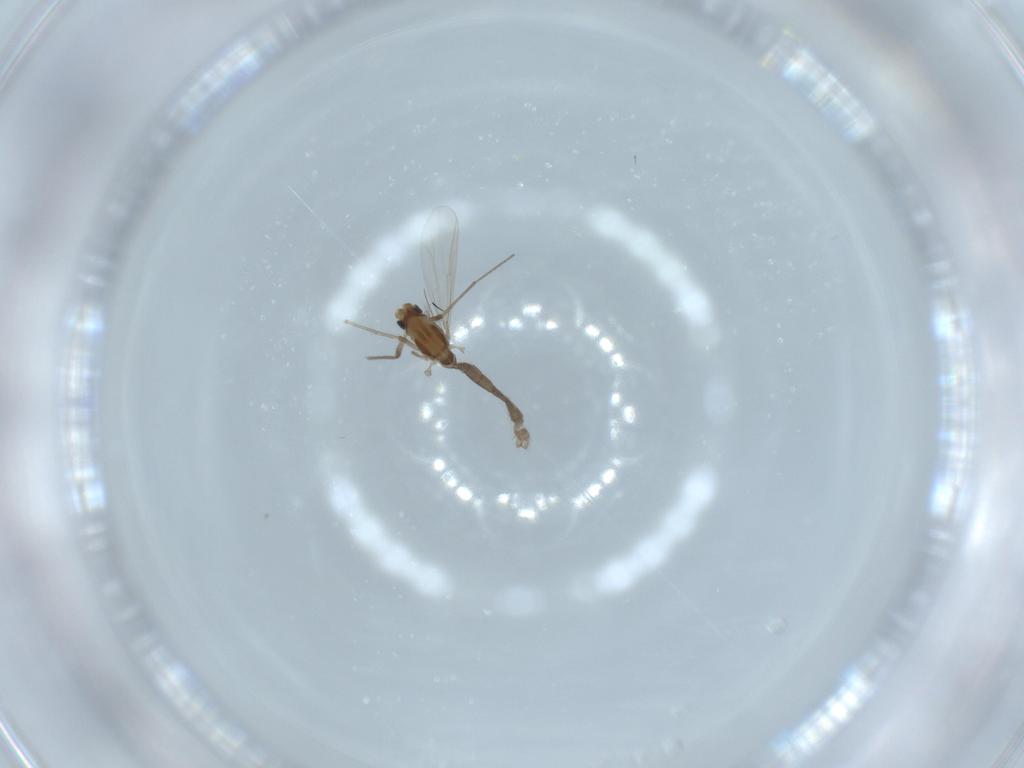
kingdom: Animalia
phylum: Arthropoda
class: Insecta
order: Diptera
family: Chironomidae
